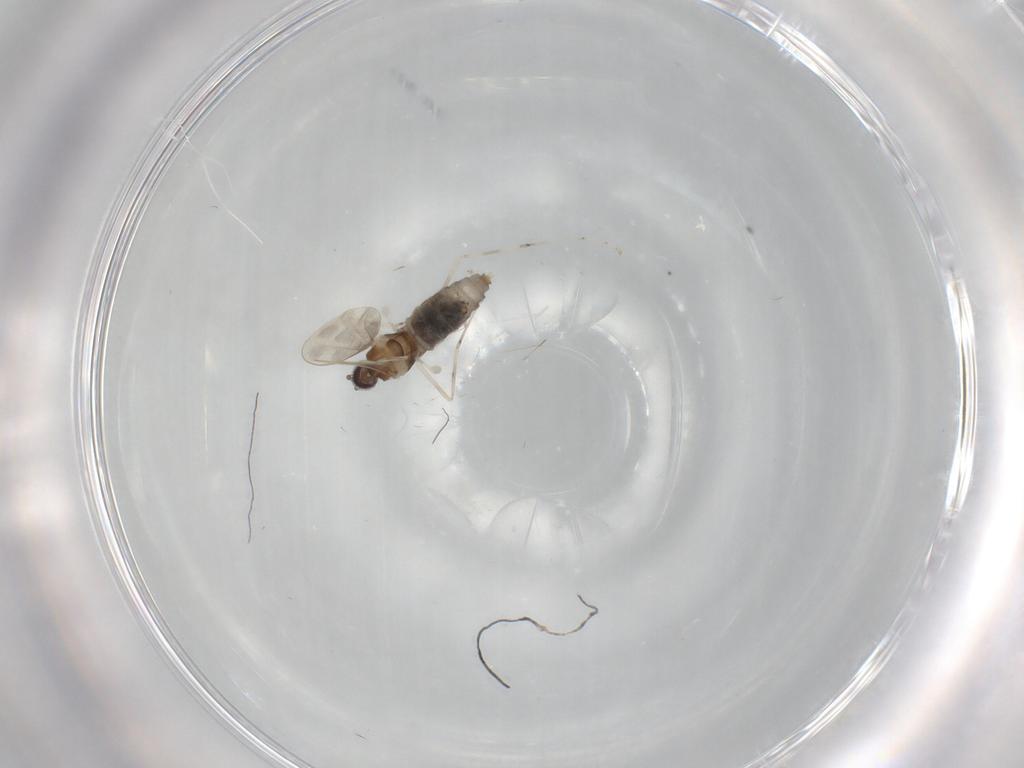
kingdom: Animalia
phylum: Arthropoda
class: Insecta
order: Diptera
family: Cecidomyiidae
